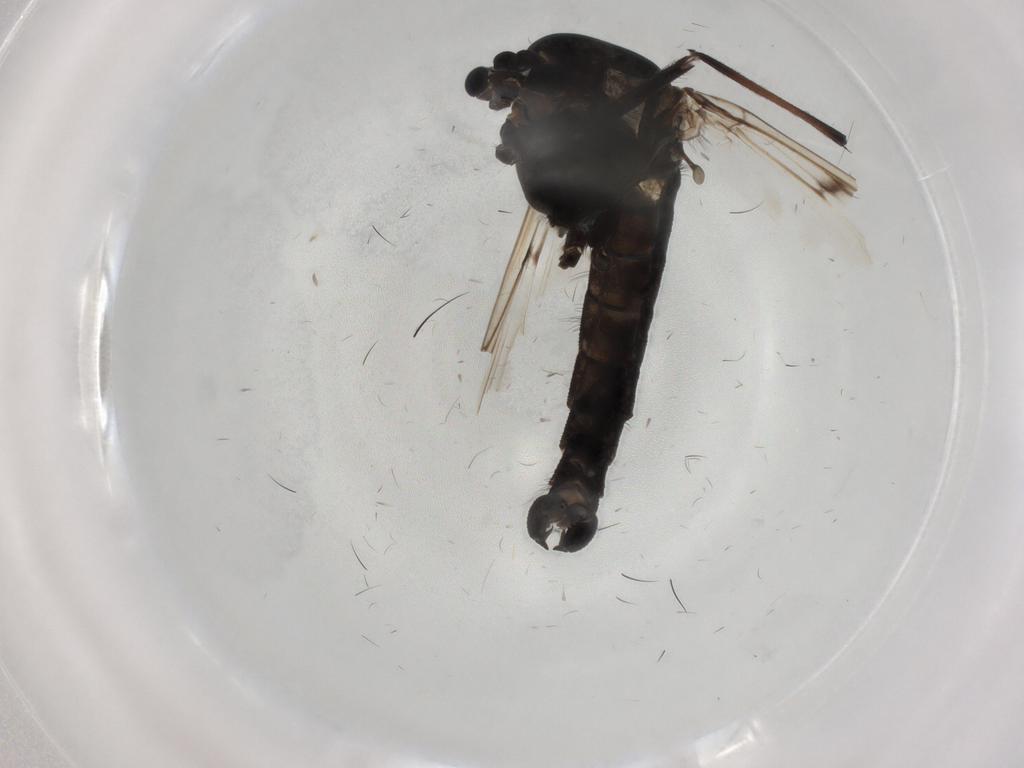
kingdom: Animalia
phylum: Arthropoda
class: Insecta
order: Diptera
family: Chironomidae
